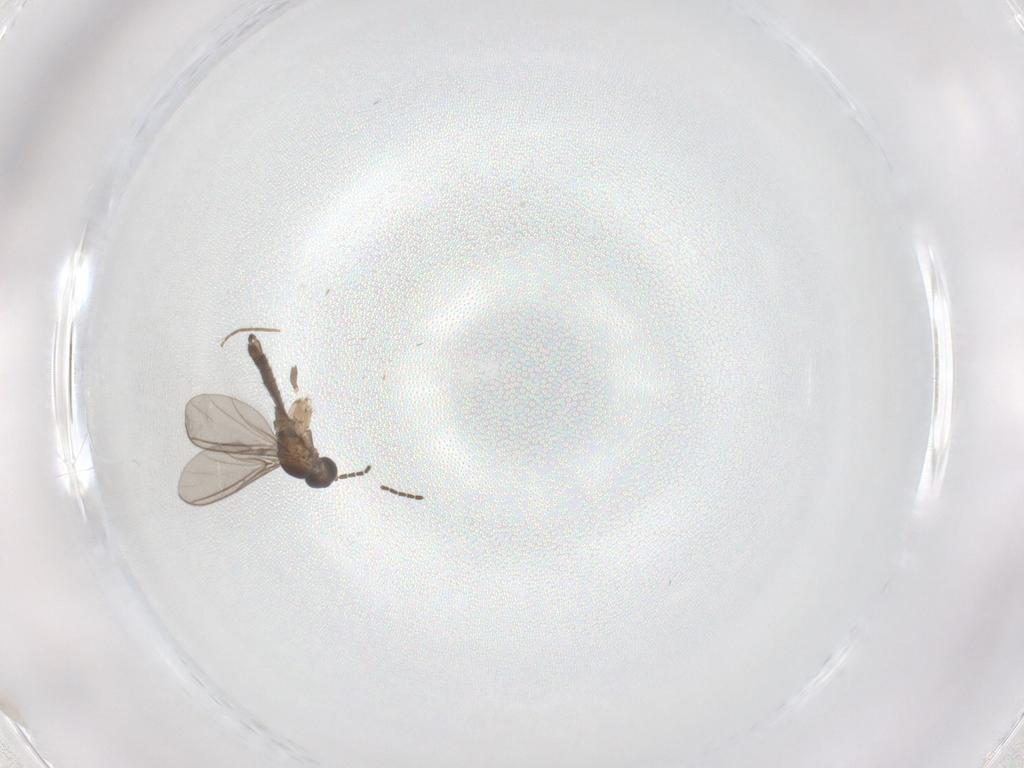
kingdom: Animalia
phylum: Arthropoda
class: Insecta
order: Diptera
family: Chironomidae
